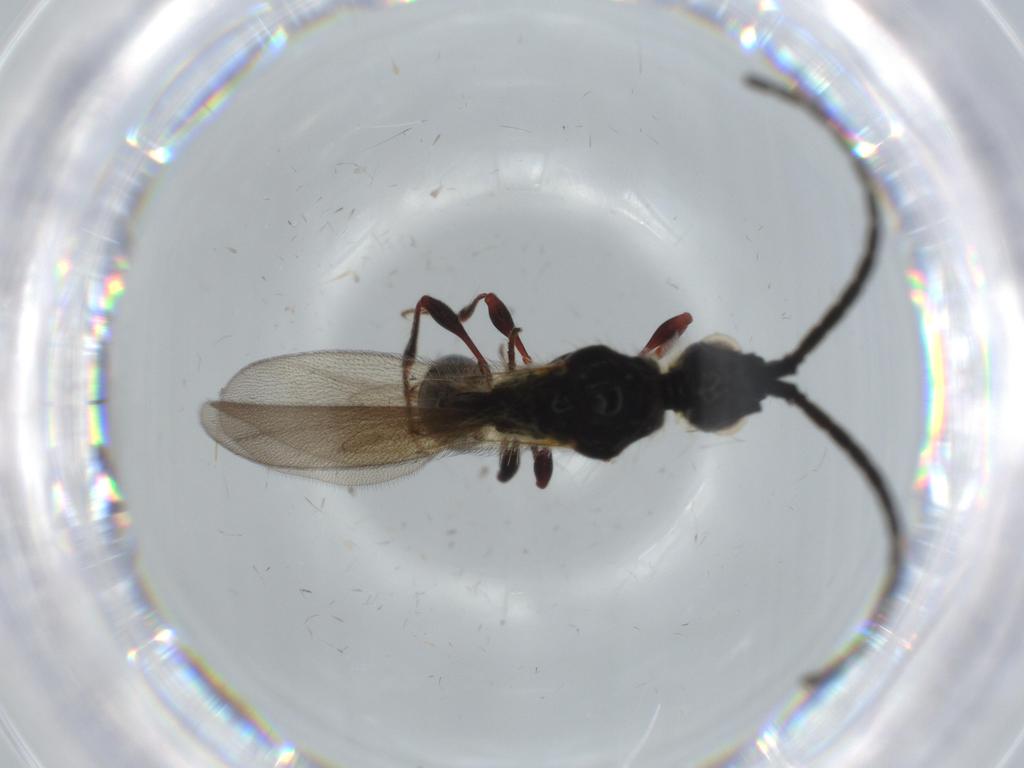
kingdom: Animalia
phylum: Arthropoda
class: Insecta
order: Hymenoptera
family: Diapriidae
